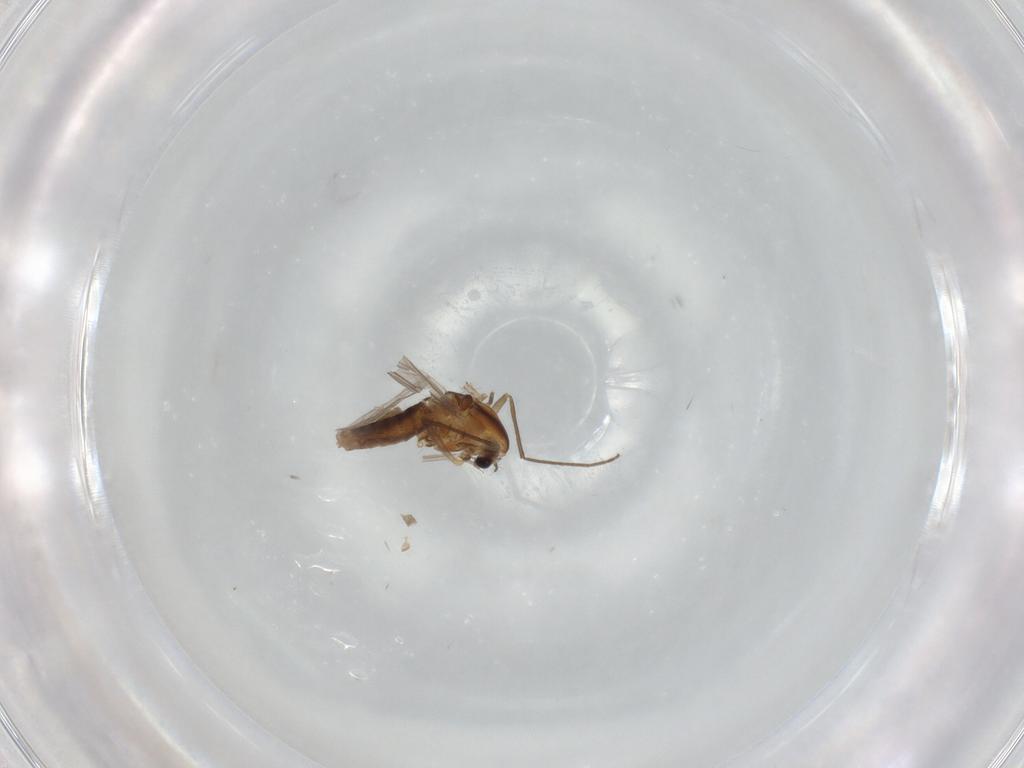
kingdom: Animalia
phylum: Arthropoda
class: Insecta
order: Diptera
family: Chironomidae
